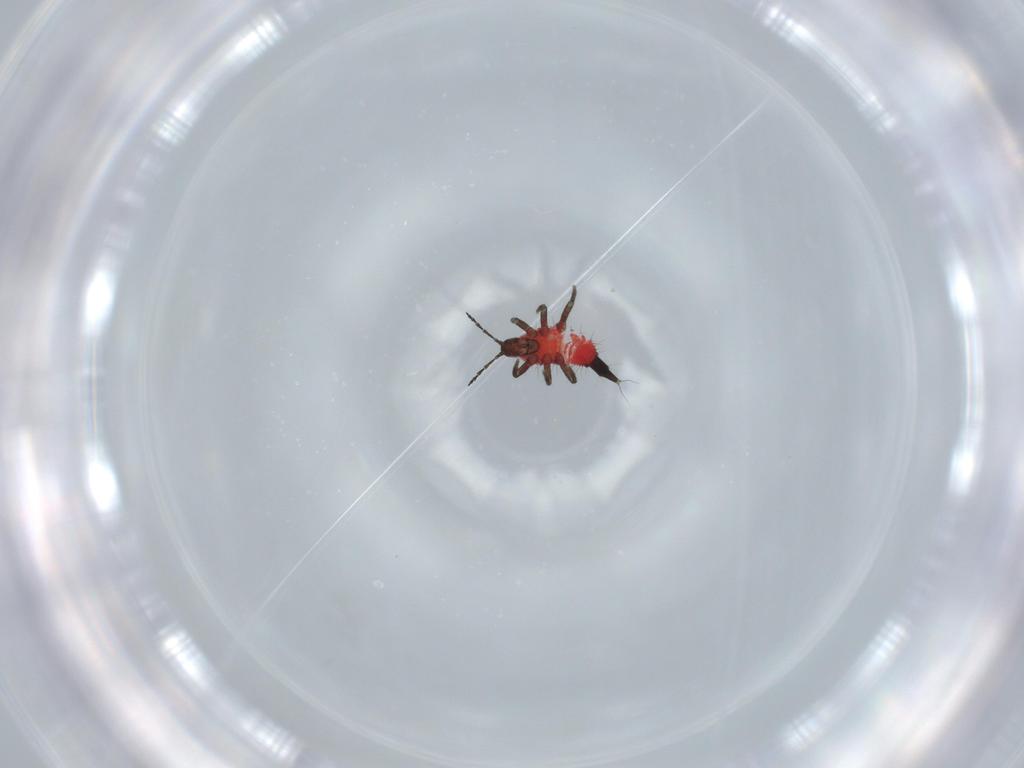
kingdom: Animalia
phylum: Arthropoda
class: Insecta
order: Thysanoptera
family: Phlaeothripidae
